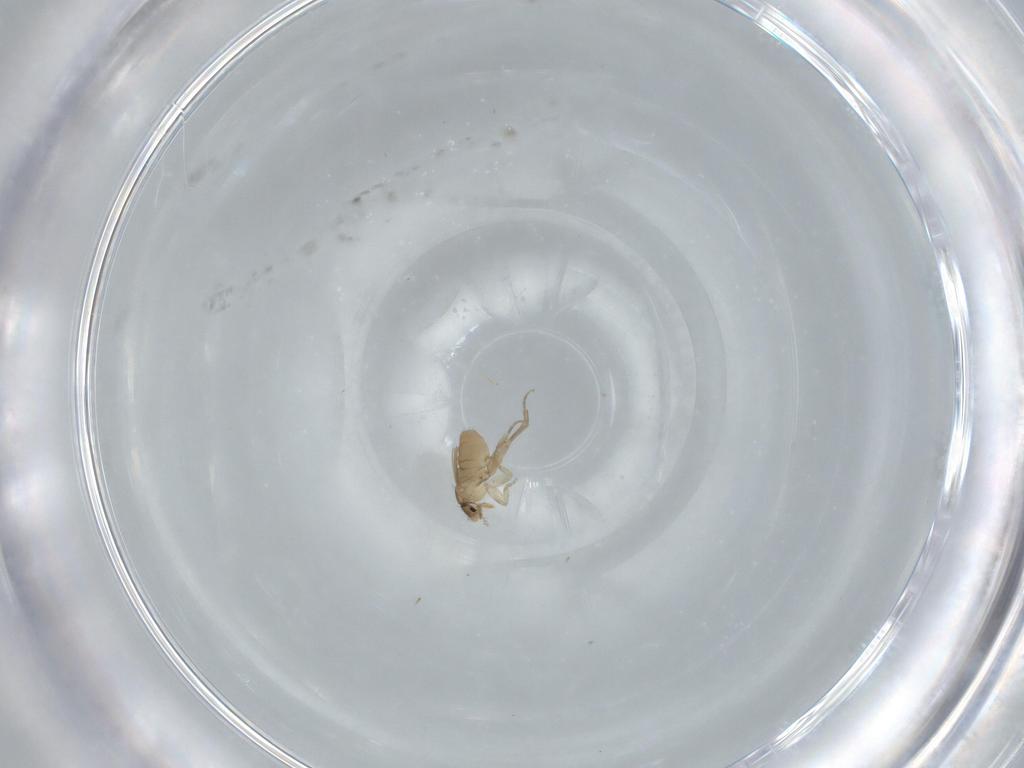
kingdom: Animalia
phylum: Arthropoda
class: Insecta
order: Diptera
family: Phoridae
